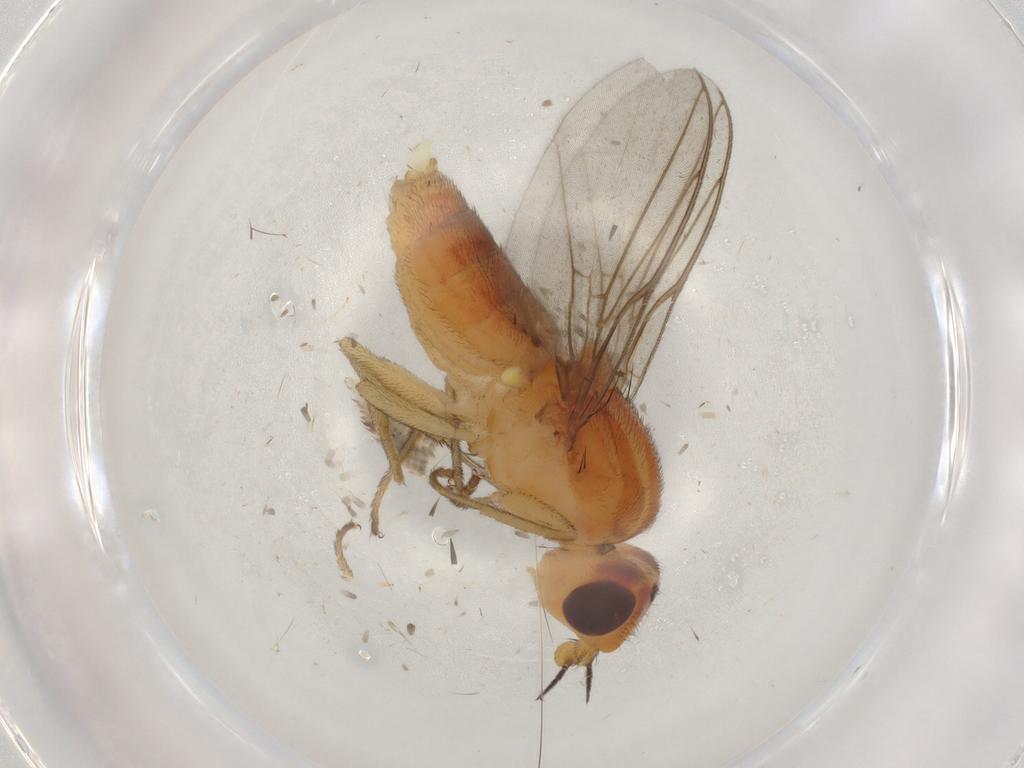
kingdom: Animalia
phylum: Arthropoda
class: Insecta
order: Diptera
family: Chloropidae
